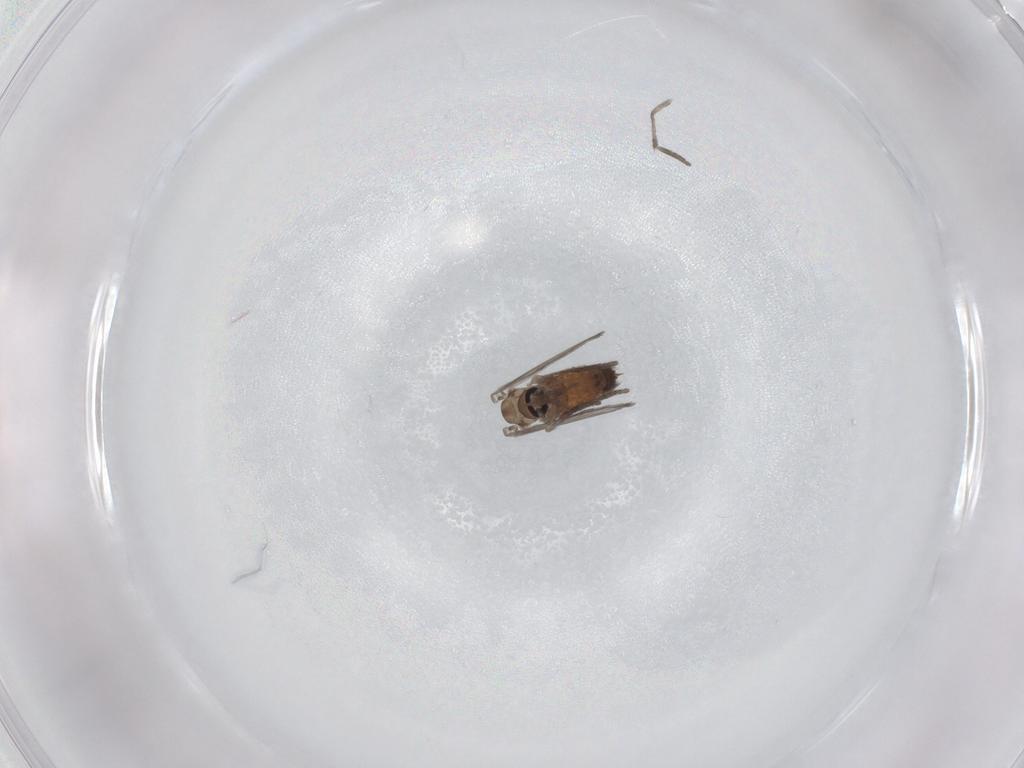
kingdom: Animalia
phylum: Arthropoda
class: Insecta
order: Diptera
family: Psychodidae
